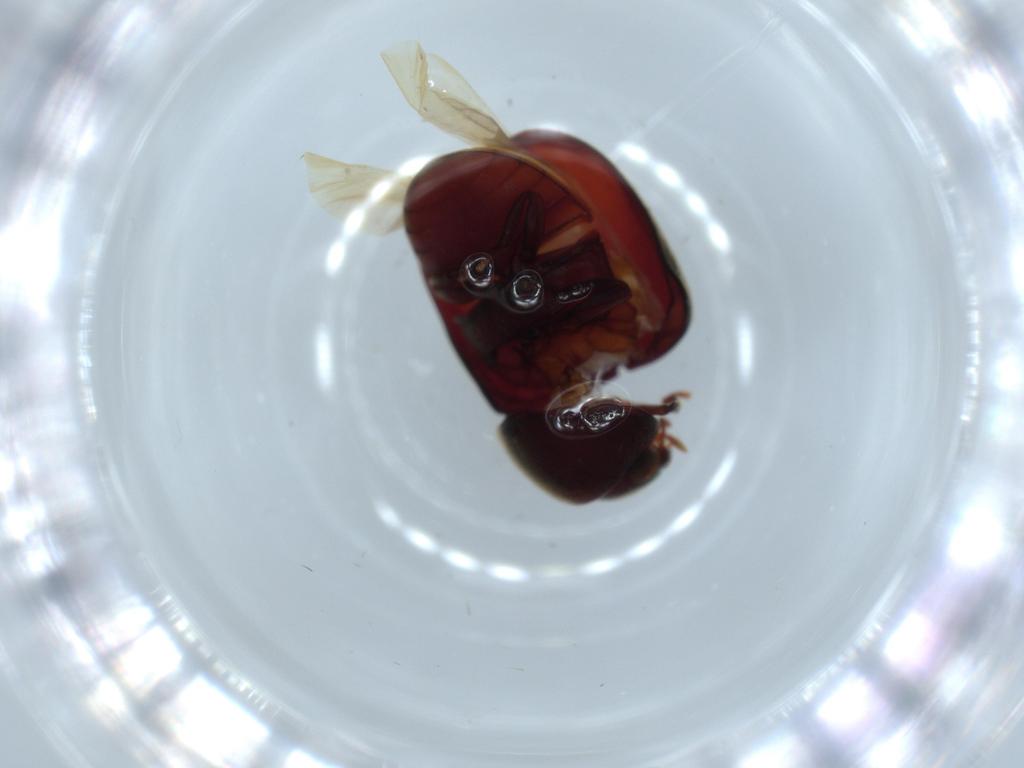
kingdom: Animalia
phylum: Arthropoda
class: Insecta
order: Coleoptera
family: Ptinidae
